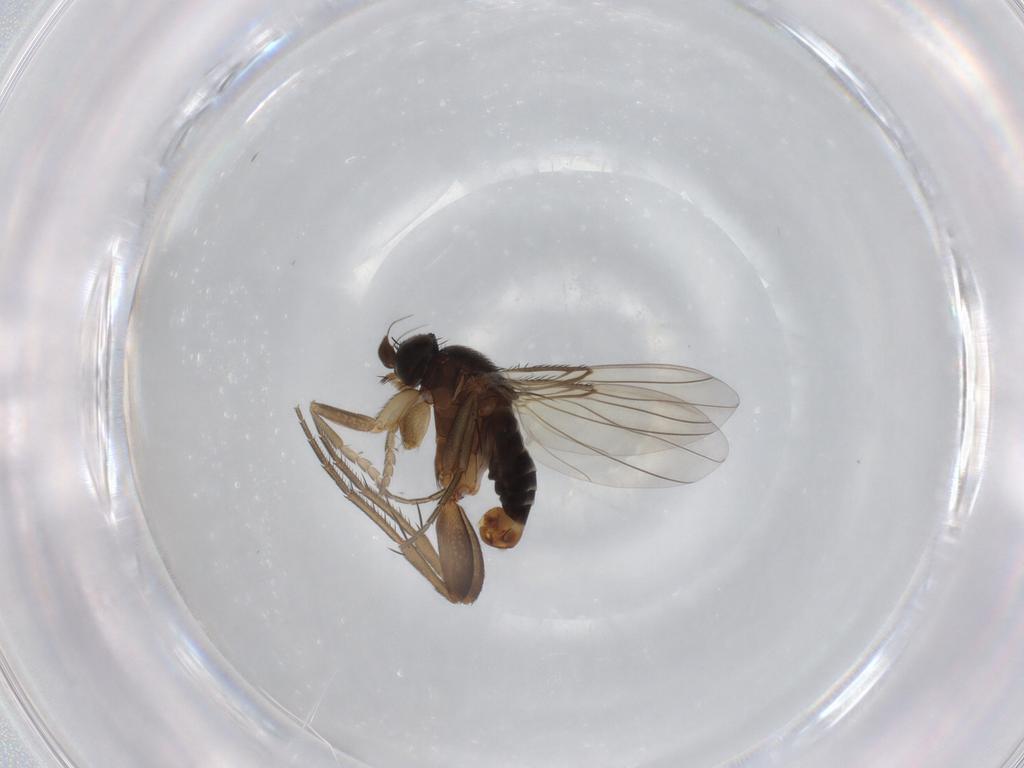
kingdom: Animalia
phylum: Arthropoda
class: Insecta
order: Diptera
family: Phoridae
